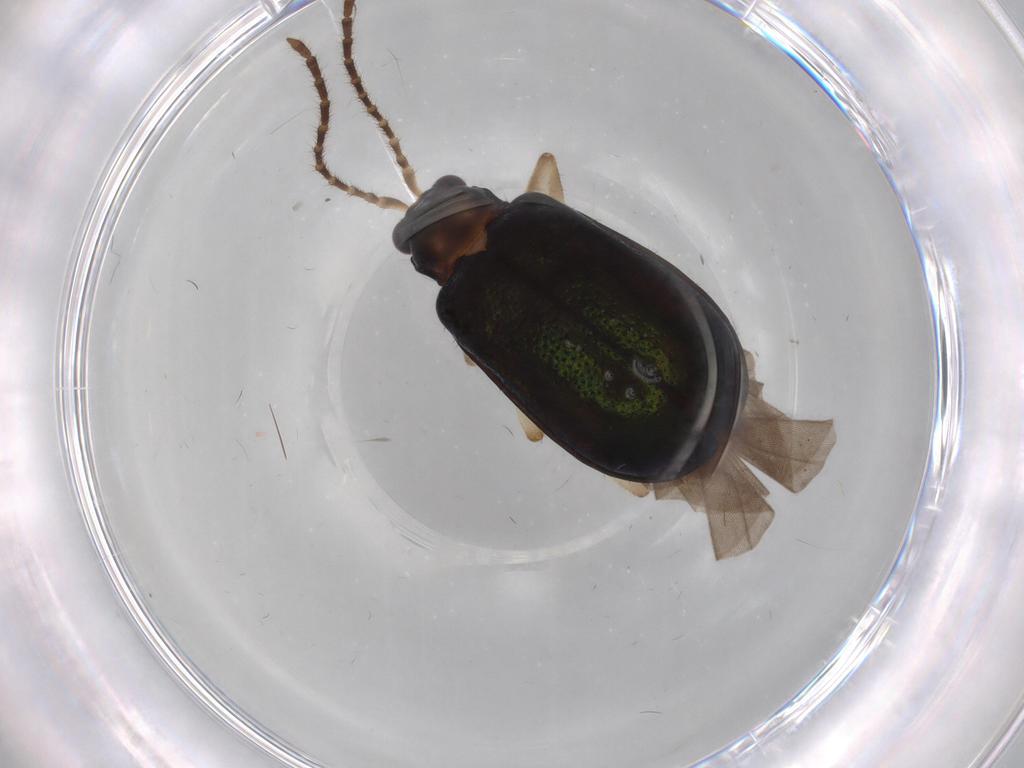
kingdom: Animalia
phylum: Arthropoda
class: Insecta
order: Coleoptera
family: Chrysomelidae
